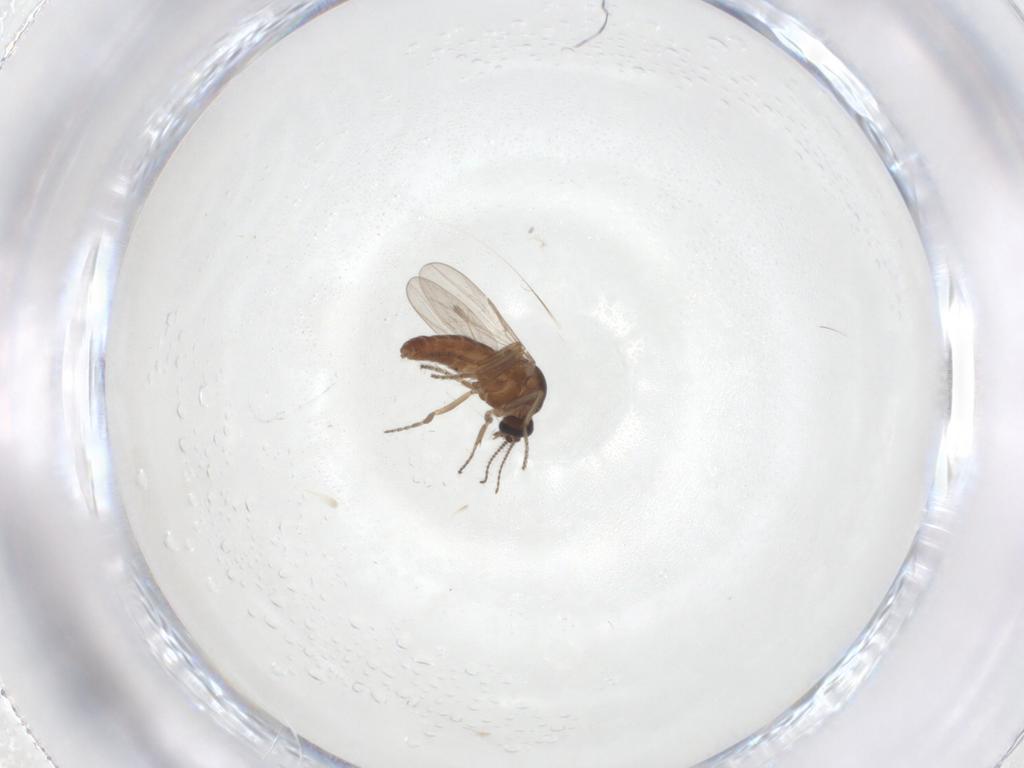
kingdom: Animalia
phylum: Arthropoda
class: Insecta
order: Diptera
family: Ceratopogonidae
